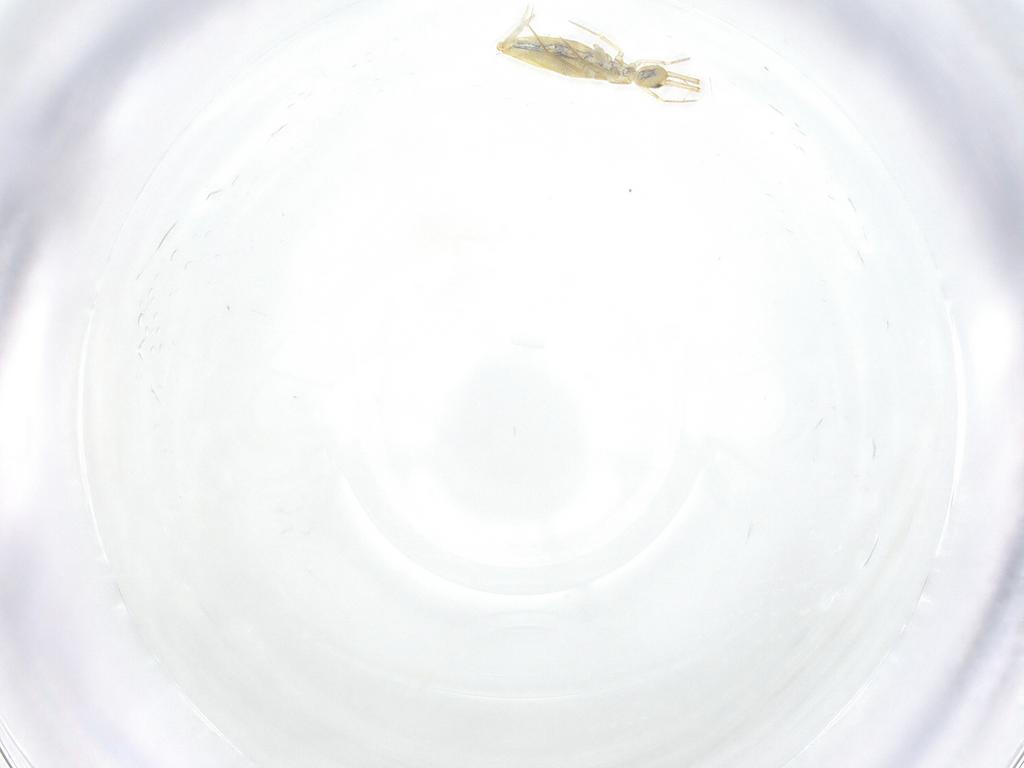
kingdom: Animalia
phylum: Arthropoda
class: Collembola
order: Entomobryomorpha
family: Paronellidae
